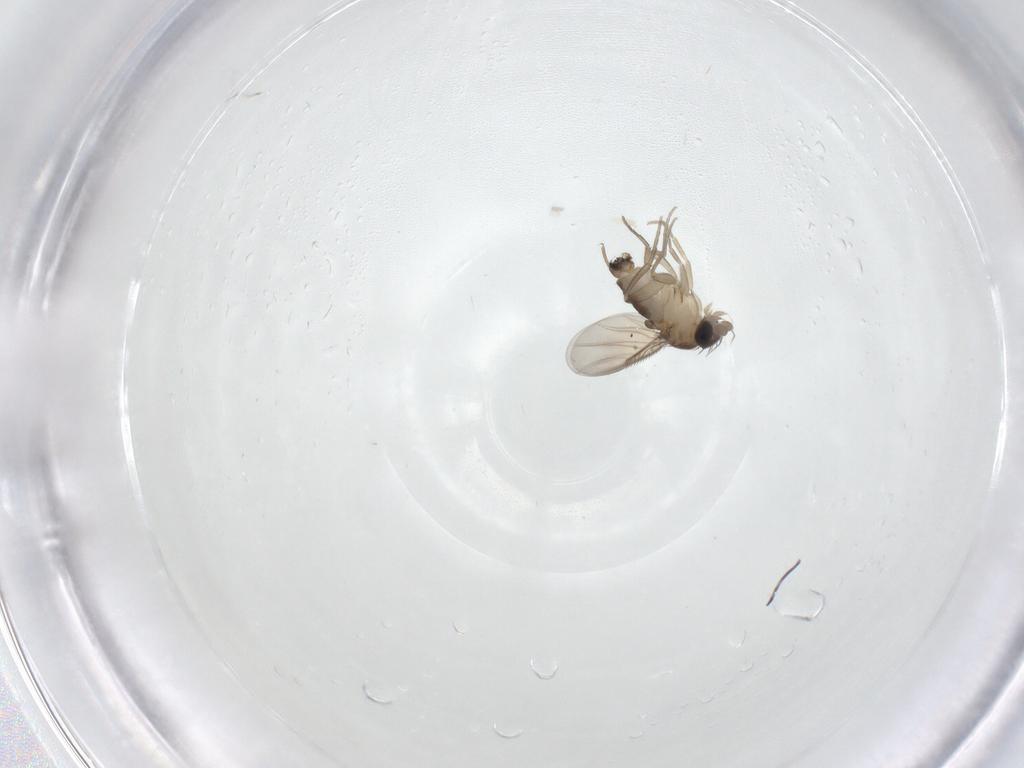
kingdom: Animalia
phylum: Arthropoda
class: Insecta
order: Diptera
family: Phoridae
